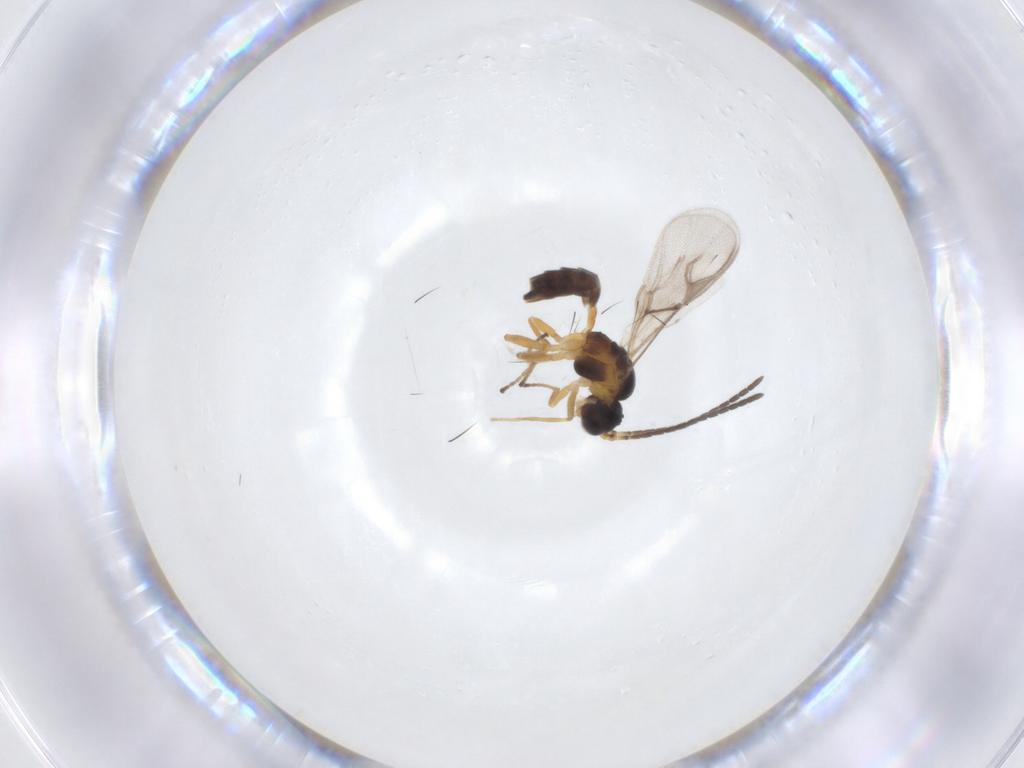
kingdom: Animalia
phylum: Arthropoda
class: Insecta
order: Hymenoptera
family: Braconidae
